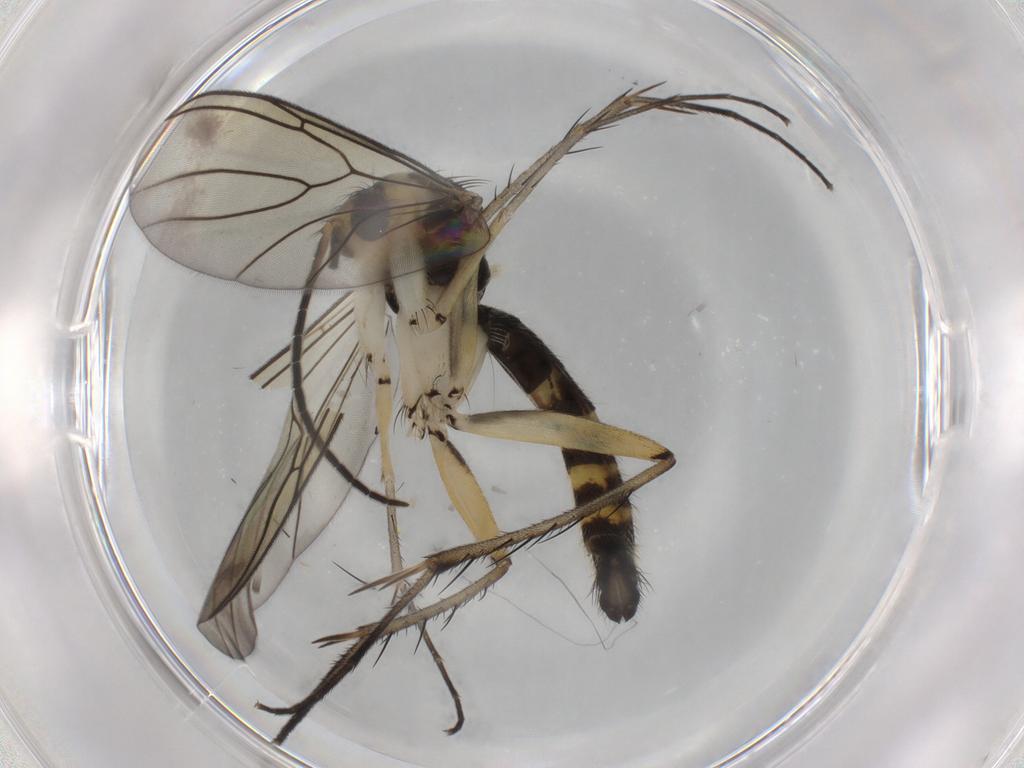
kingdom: Animalia
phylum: Arthropoda
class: Insecta
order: Diptera
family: Mycetophilidae
